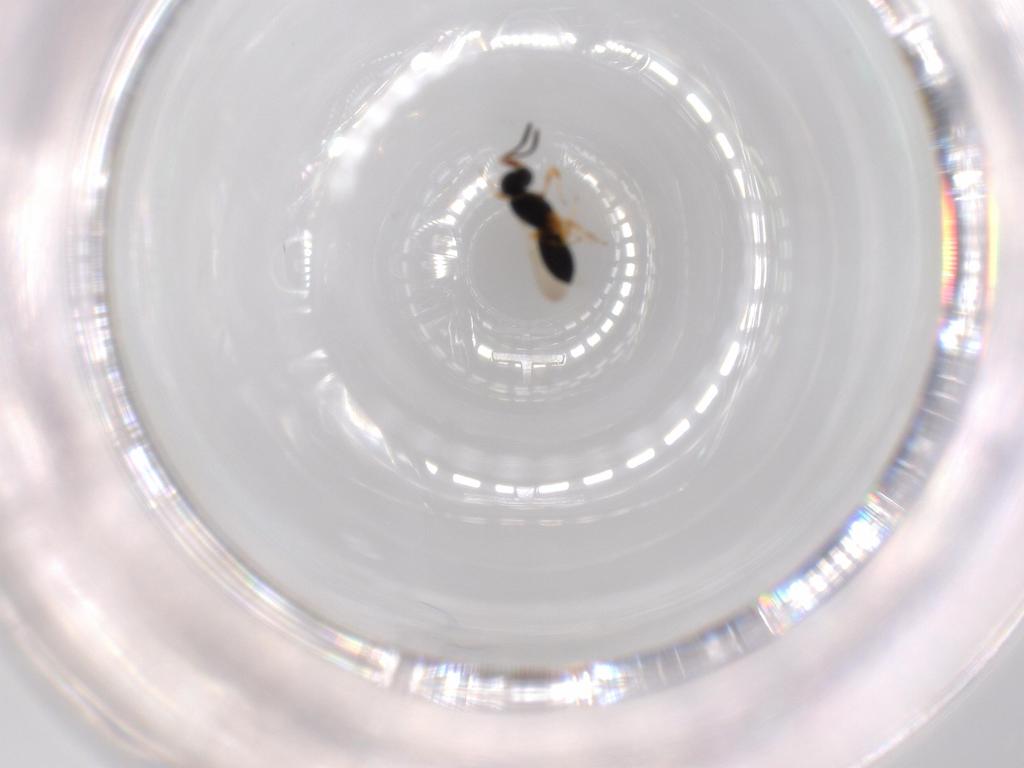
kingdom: Animalia
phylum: Arthropoda
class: Insecta
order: Hymenoptera
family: Scelionidae
